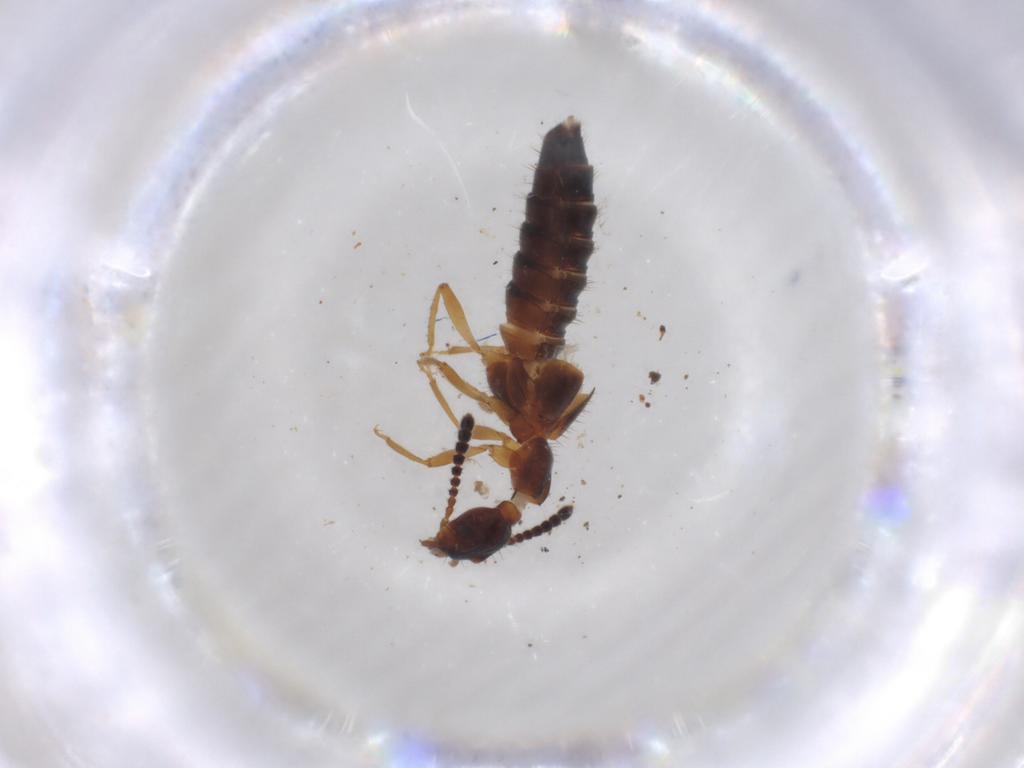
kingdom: Animalia
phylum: Arthropoda
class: Insecta
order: Coleoptera
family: Staphylinidae
